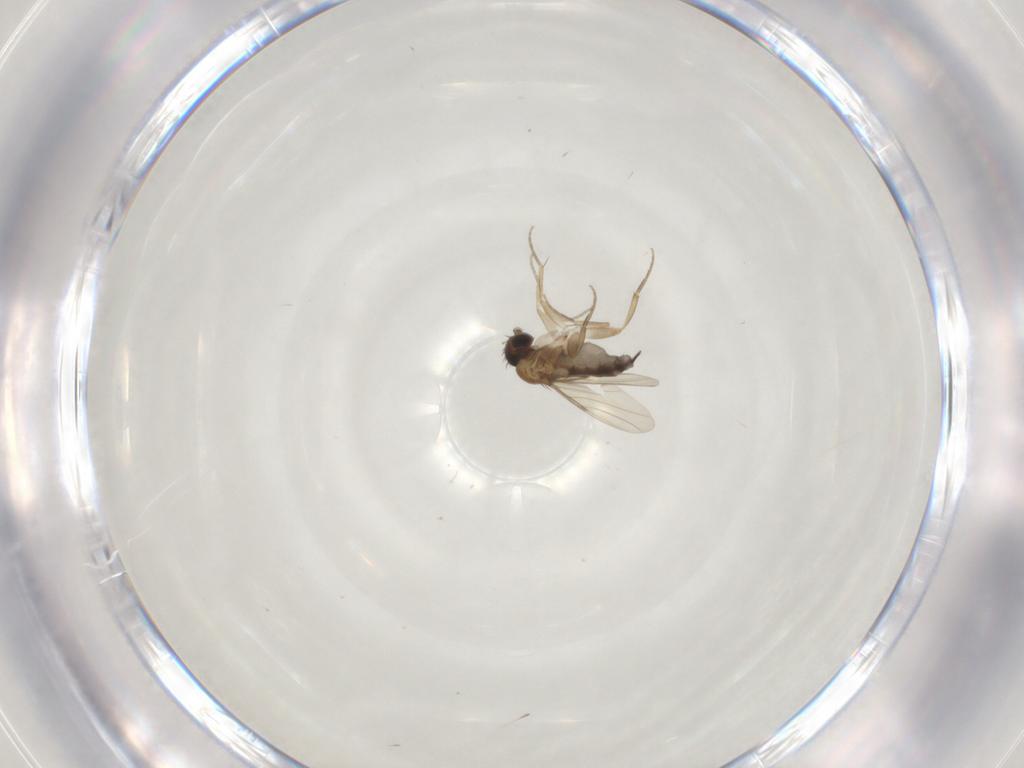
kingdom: Animalia
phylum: Arthropoda
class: Insecta
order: Diptera
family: Phoridae
